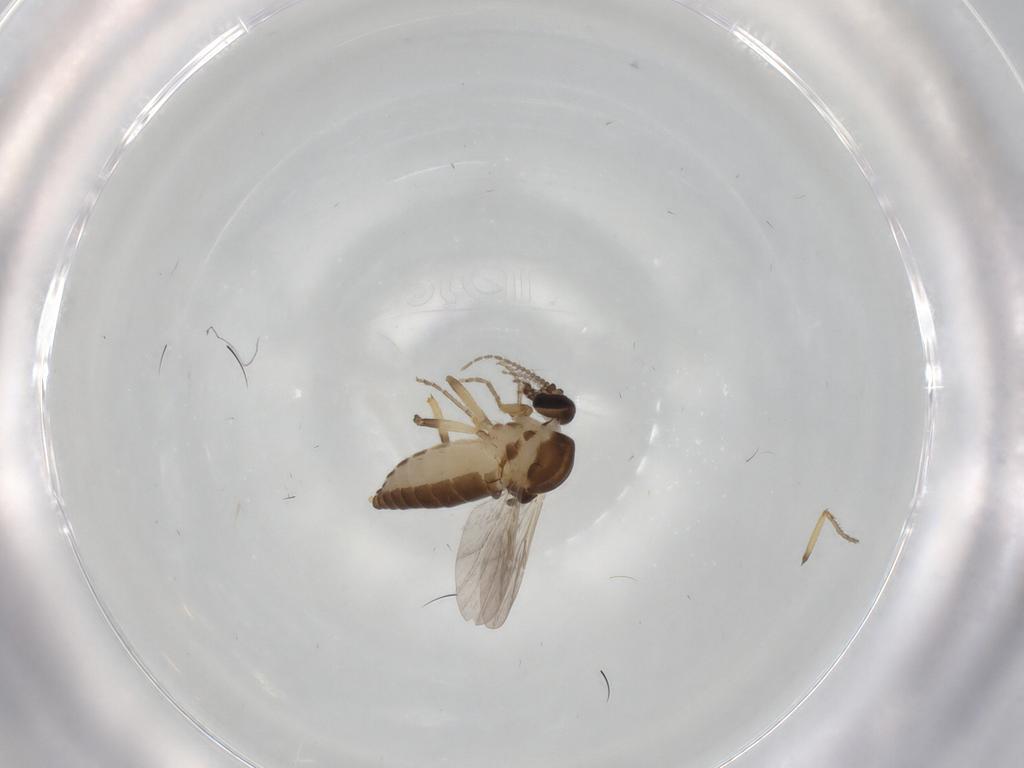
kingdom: Animalia
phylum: Arthropoda
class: Insecta
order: Diptera
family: Ceratopogonidae
